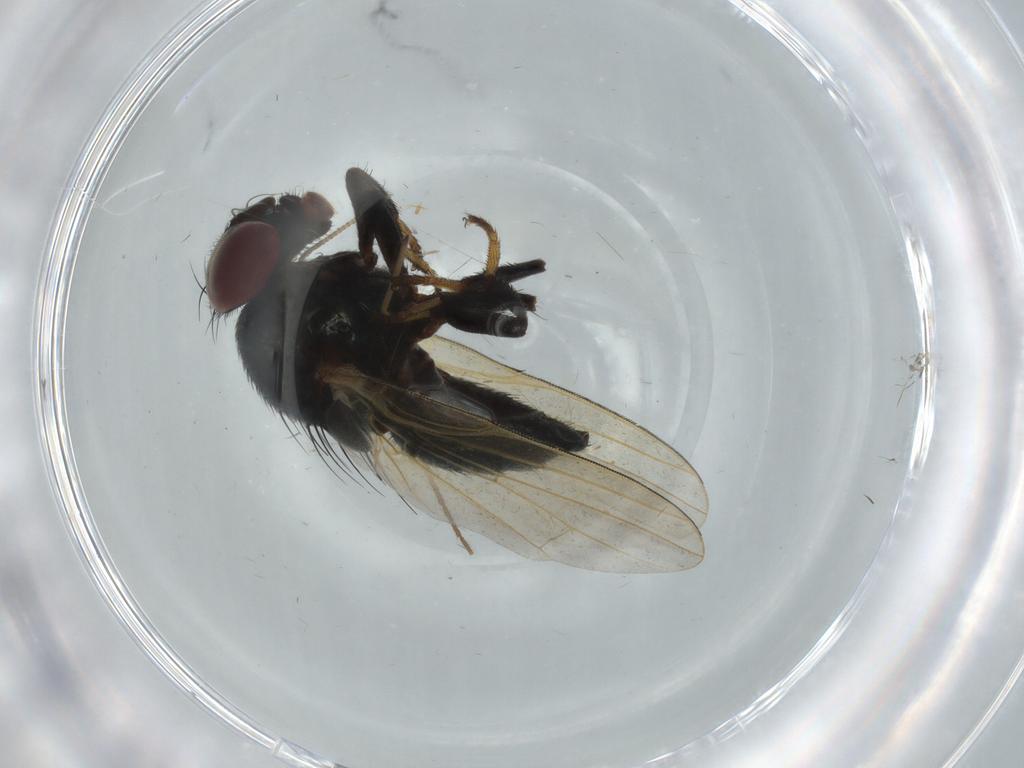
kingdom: Animalia
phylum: Arthropoda
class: Insecta
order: Diptera
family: Lonchaeidae
